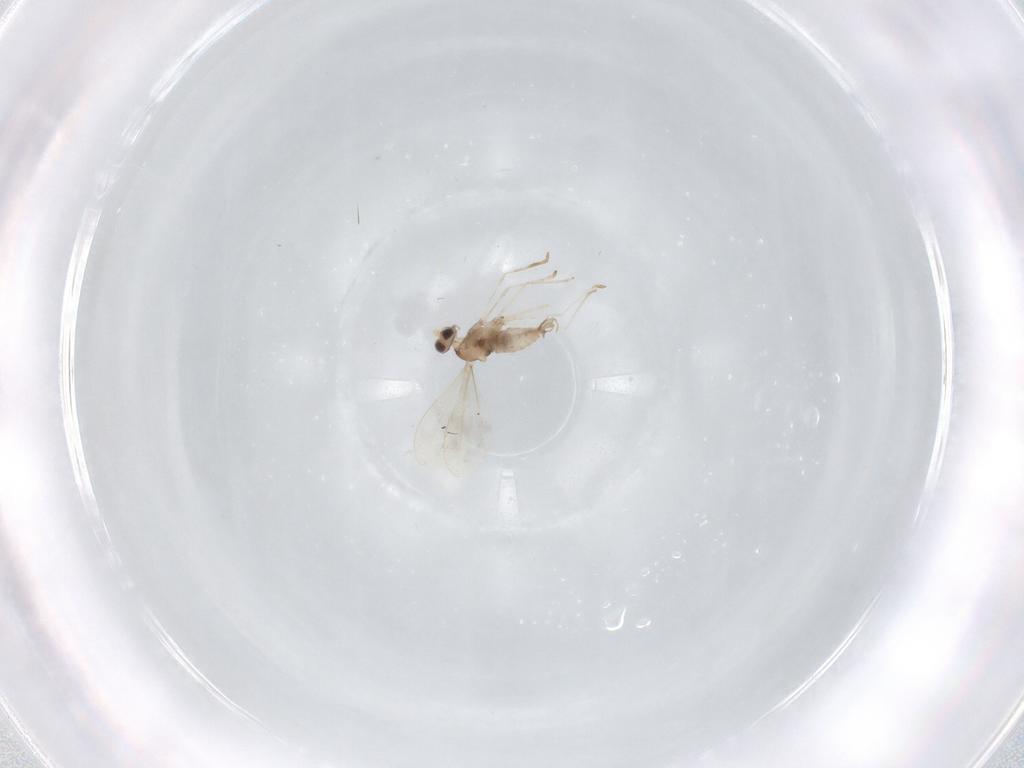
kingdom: Animalia
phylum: Arthropoda
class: Insecta
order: Diptera
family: Cecidomyiidae
